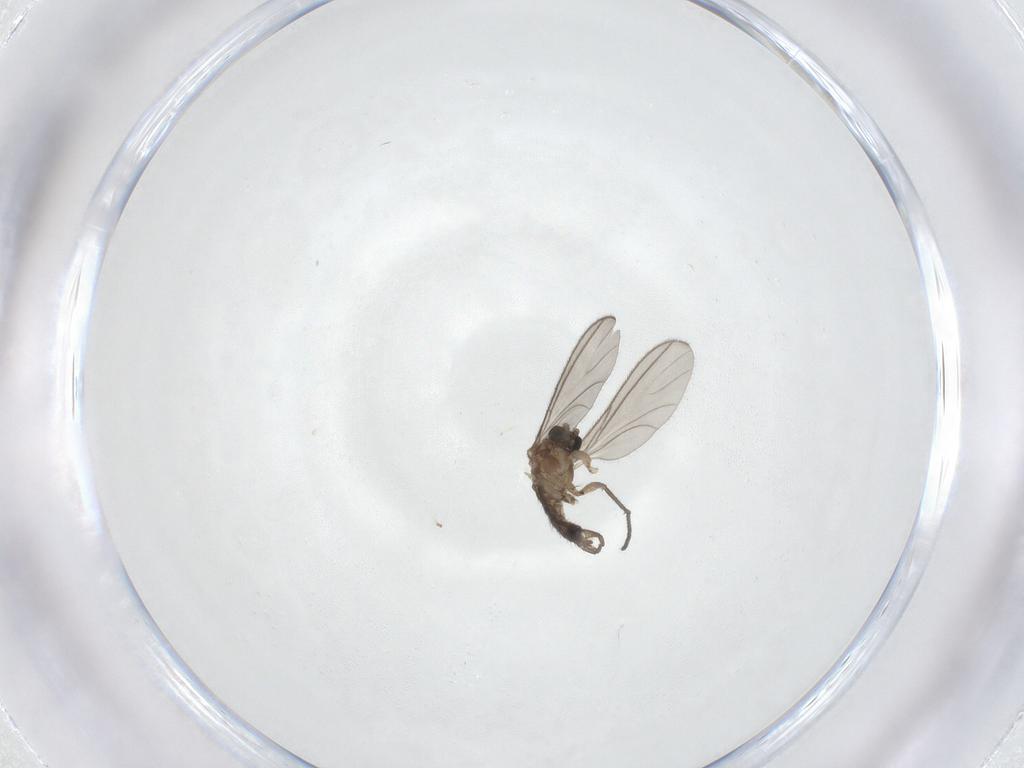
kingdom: Animalia
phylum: Arthropoda
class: Insecta
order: Diptera
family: Sciaridae
